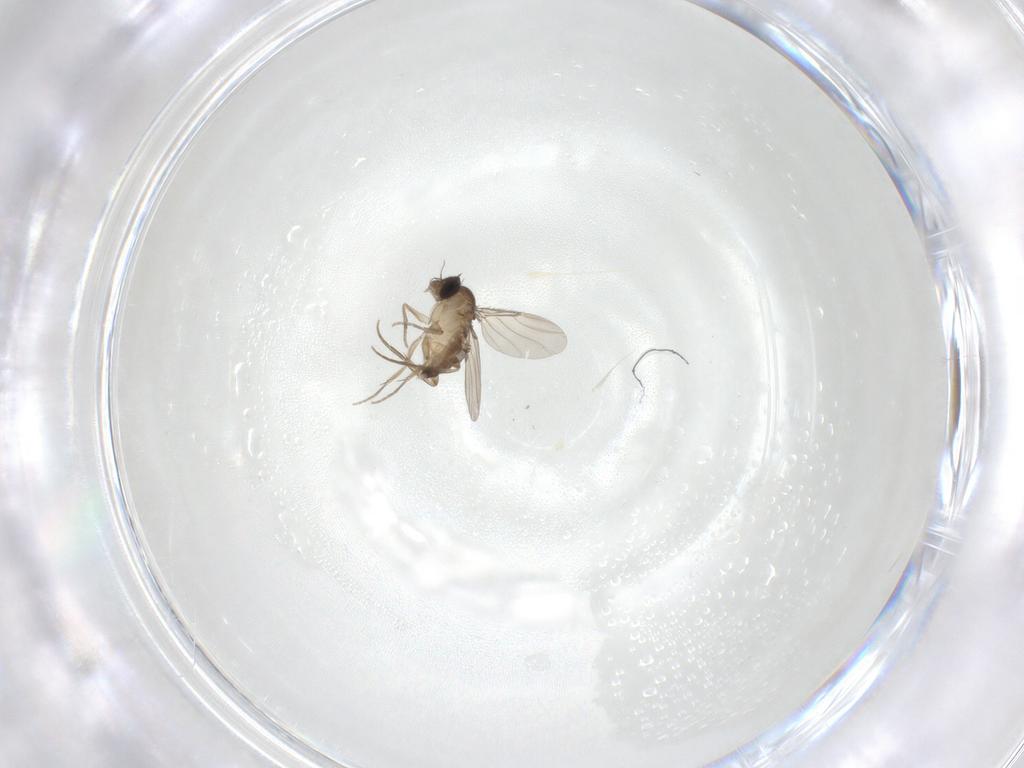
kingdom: Animalia
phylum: Arthropoda
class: Insecta
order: Diptera
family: Phoridae
